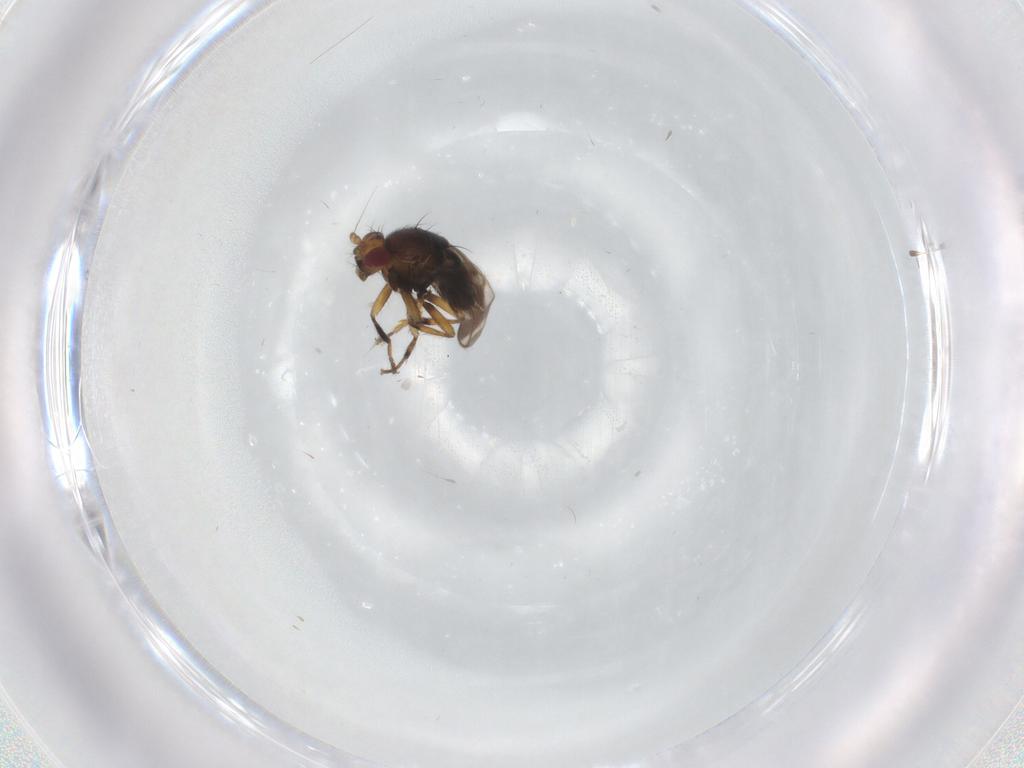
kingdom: Animalia
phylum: Arthropoda
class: Insecta
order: Diptera
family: Sphaeroceridae
